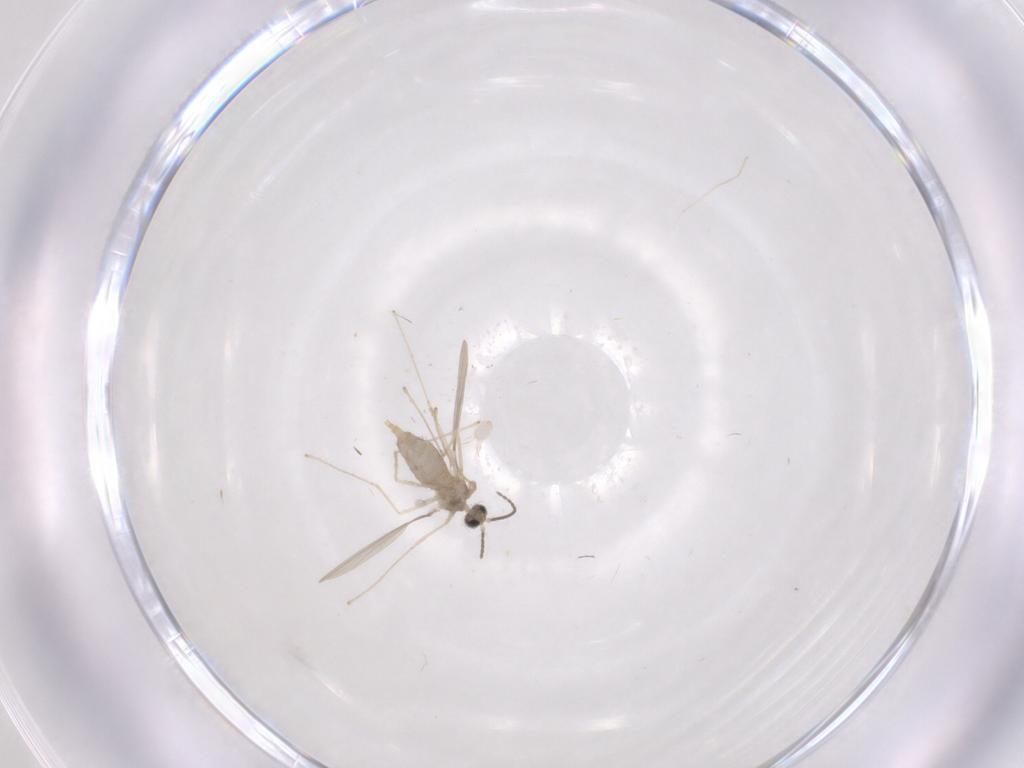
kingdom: Animalia
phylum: Arthropoda
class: Insecta
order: Diptera
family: Cecidomyiidae
